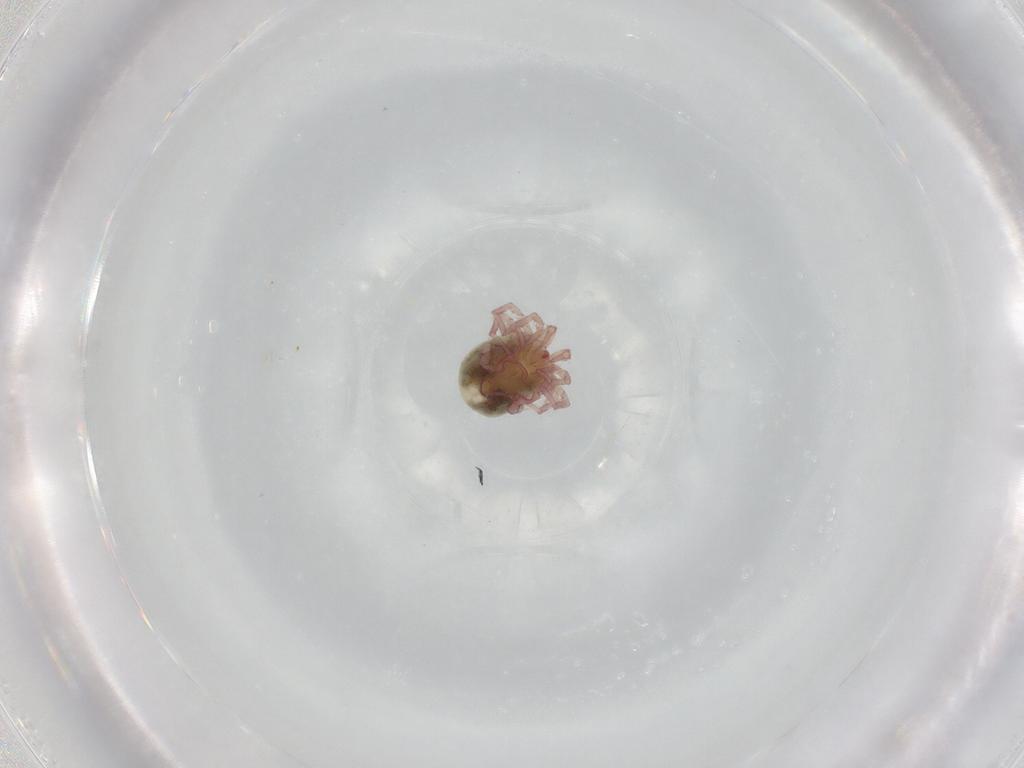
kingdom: Animalia
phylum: Arthropoda
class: Arachnida
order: Trombidiformes
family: Pionidae
